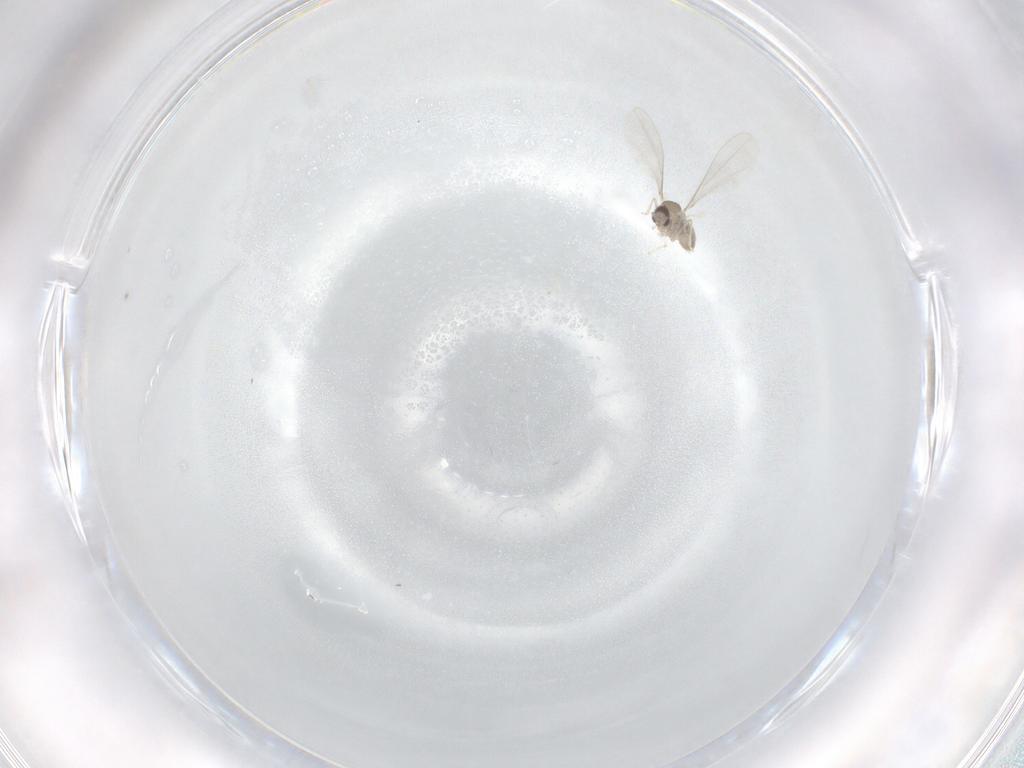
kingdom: Animalia
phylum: Arthropoda
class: Insecta
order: Diptera
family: Cecidomyiidae
